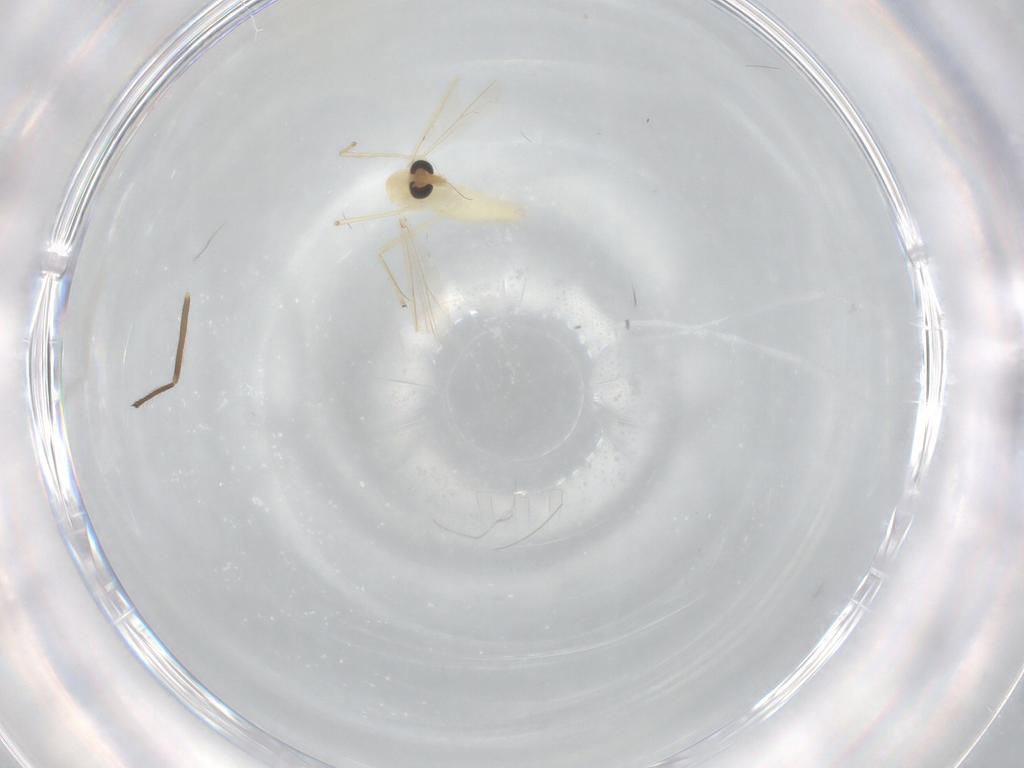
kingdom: Animalia
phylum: Arthropoda
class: Insecta
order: Diptera
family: Chironomidae
